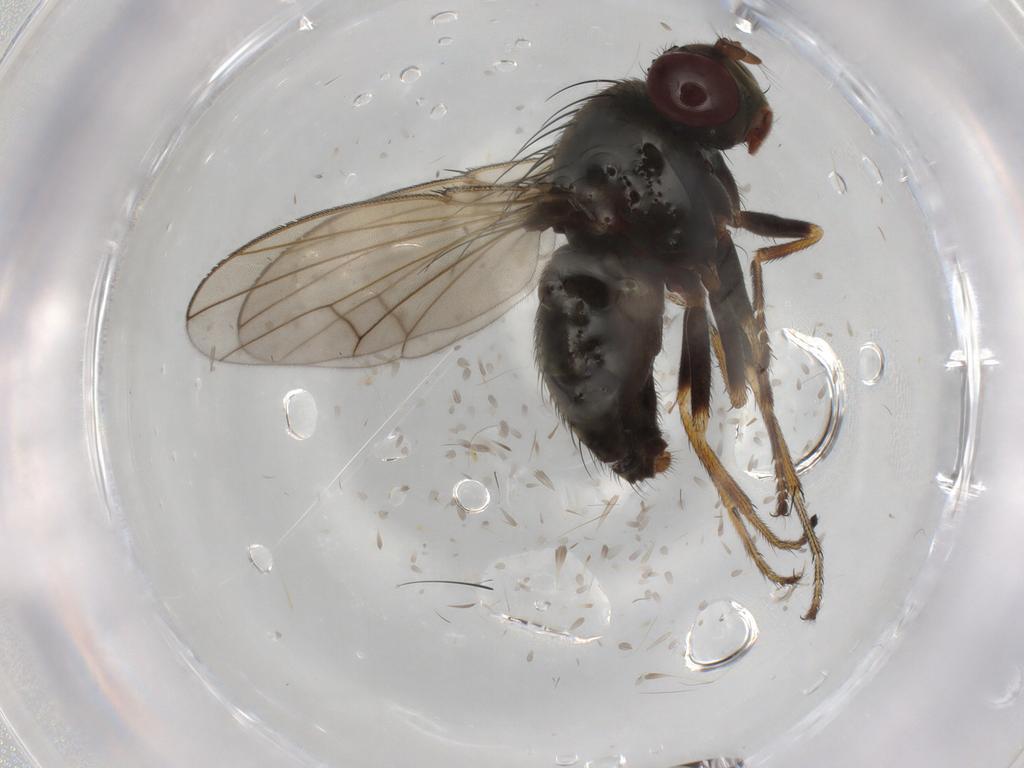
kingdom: Animalia
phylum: Arthropoda
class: Insecta
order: Diptera
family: Ephydridae
